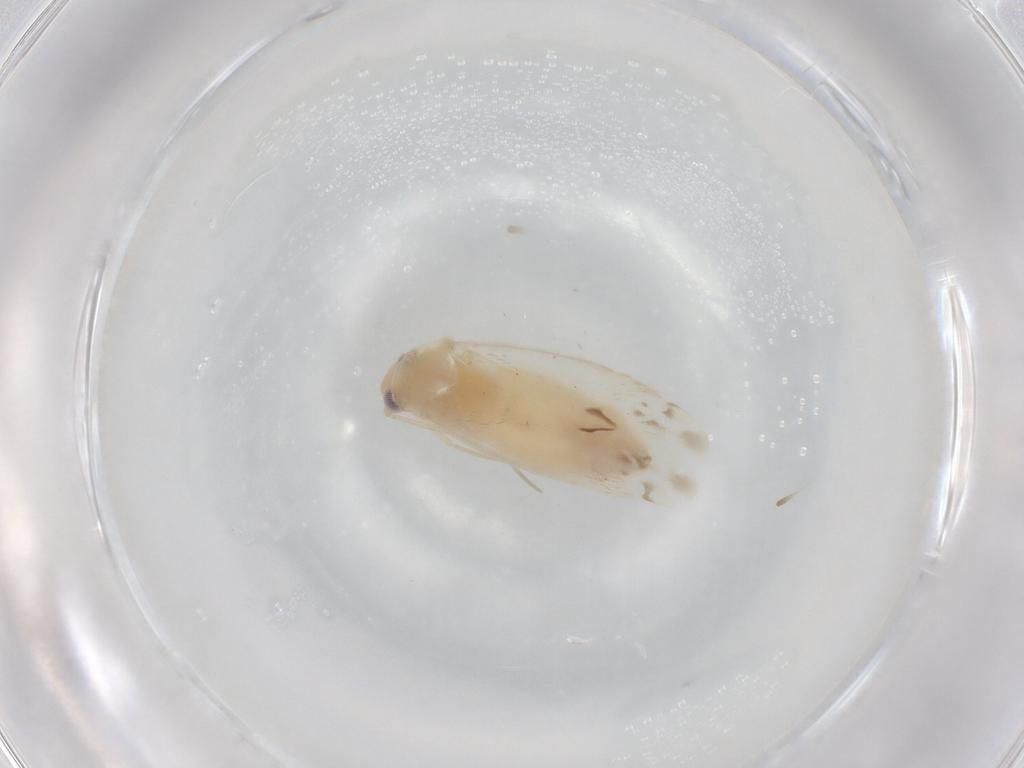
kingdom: Animalia
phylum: Arthropoda
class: Insecta
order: Hemiptera
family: Miridae
